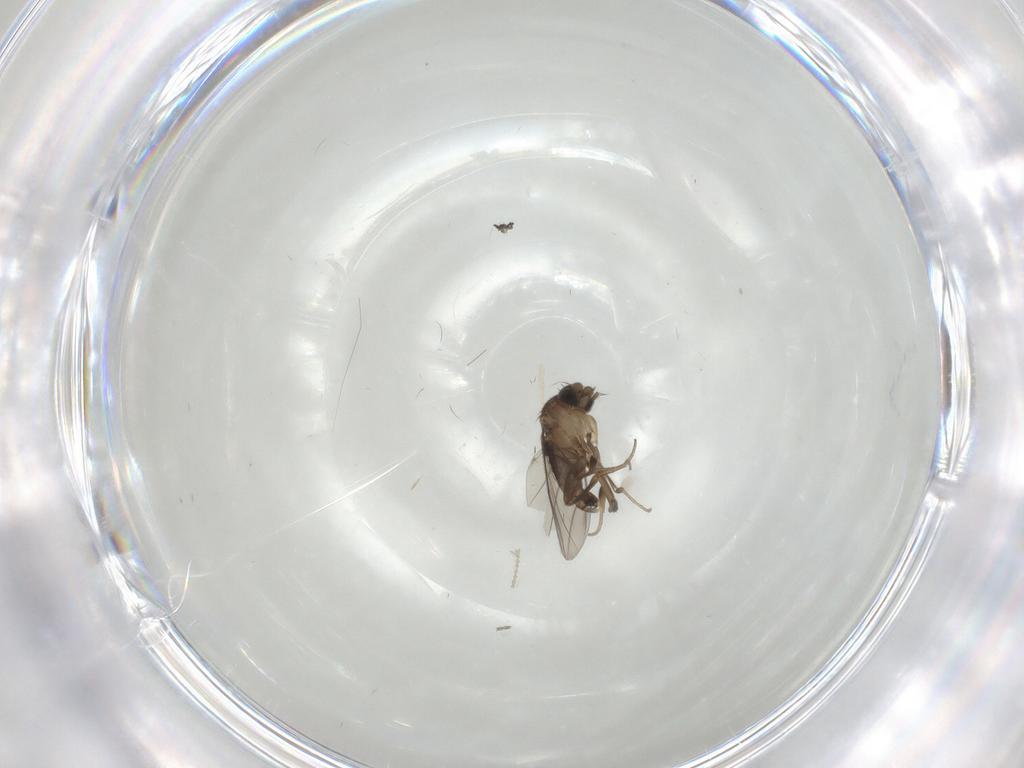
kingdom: Animalia
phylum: Arthropoda
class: Insecta
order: Diptera
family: Phoridae
